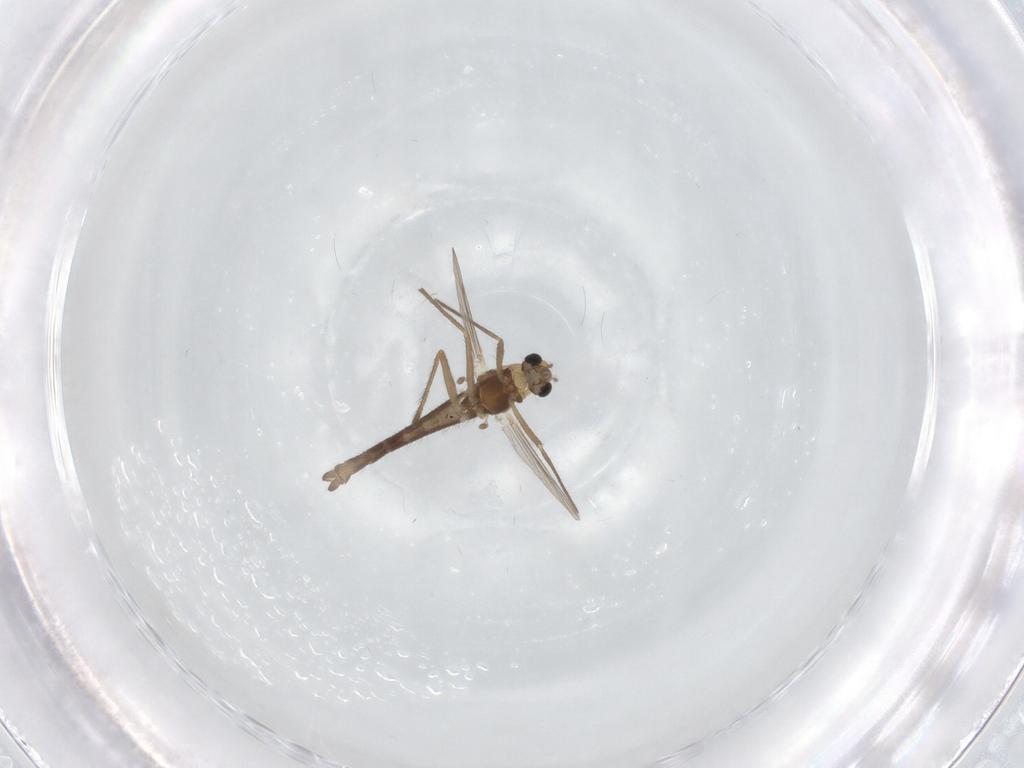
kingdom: Animalia
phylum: Arthropoda
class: Insecta
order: Diptera
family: Chironomidae
